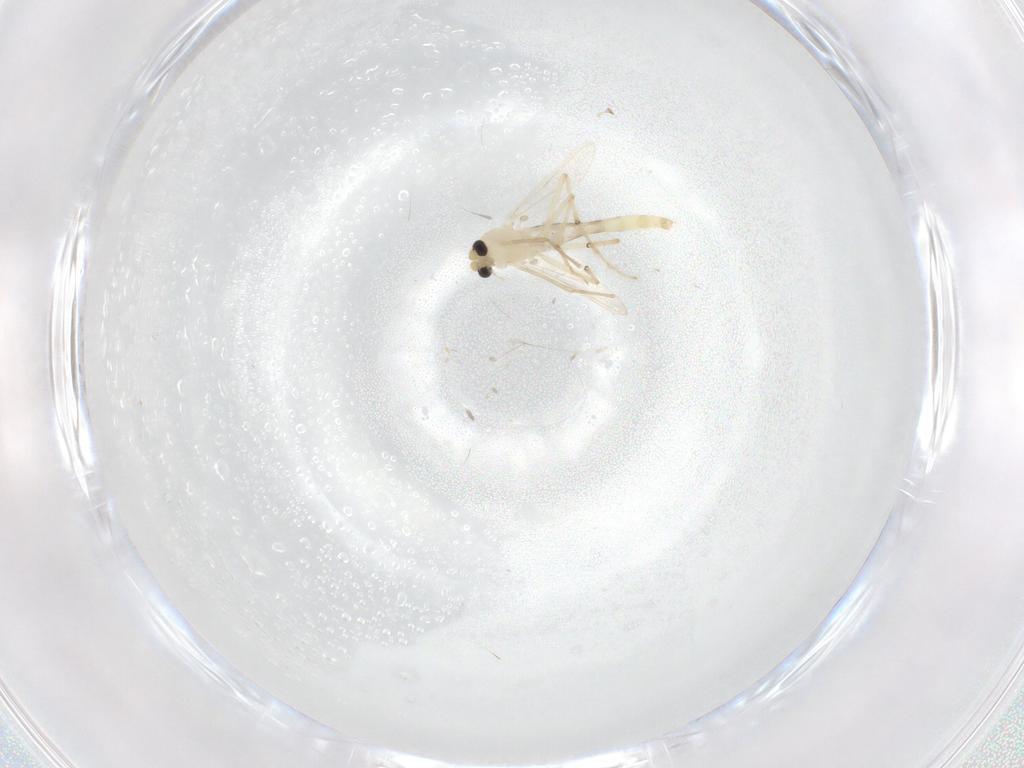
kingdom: Animalia
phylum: Arthropoda
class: Insecta
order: Diptera
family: Chironomidae
